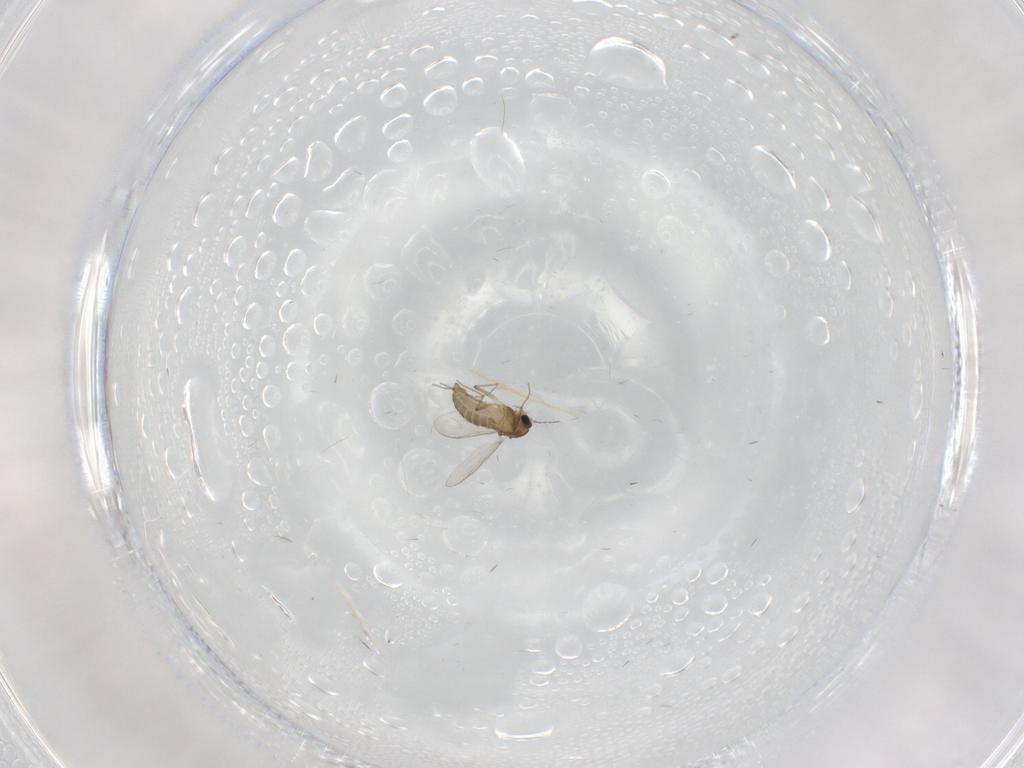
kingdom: Animalia
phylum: Arthropoda
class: Insecta
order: Diptera
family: Chironomidae
